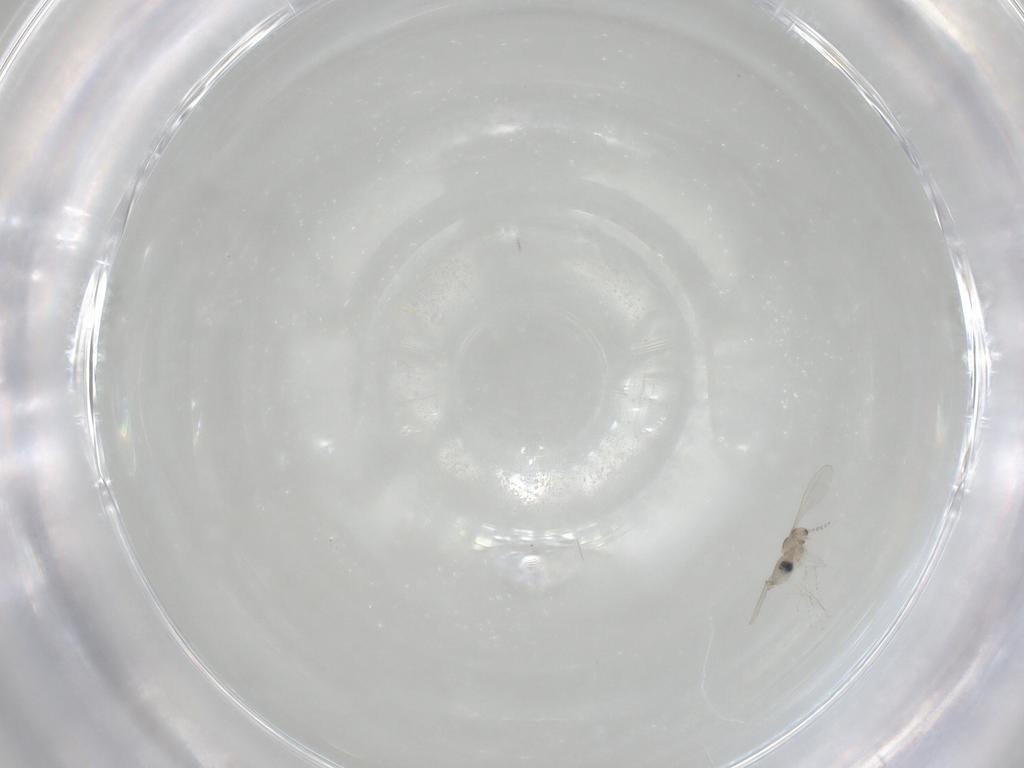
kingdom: Animalia
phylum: Arthropoda
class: Insecta
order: Diptera
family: Cecidomyiidae
